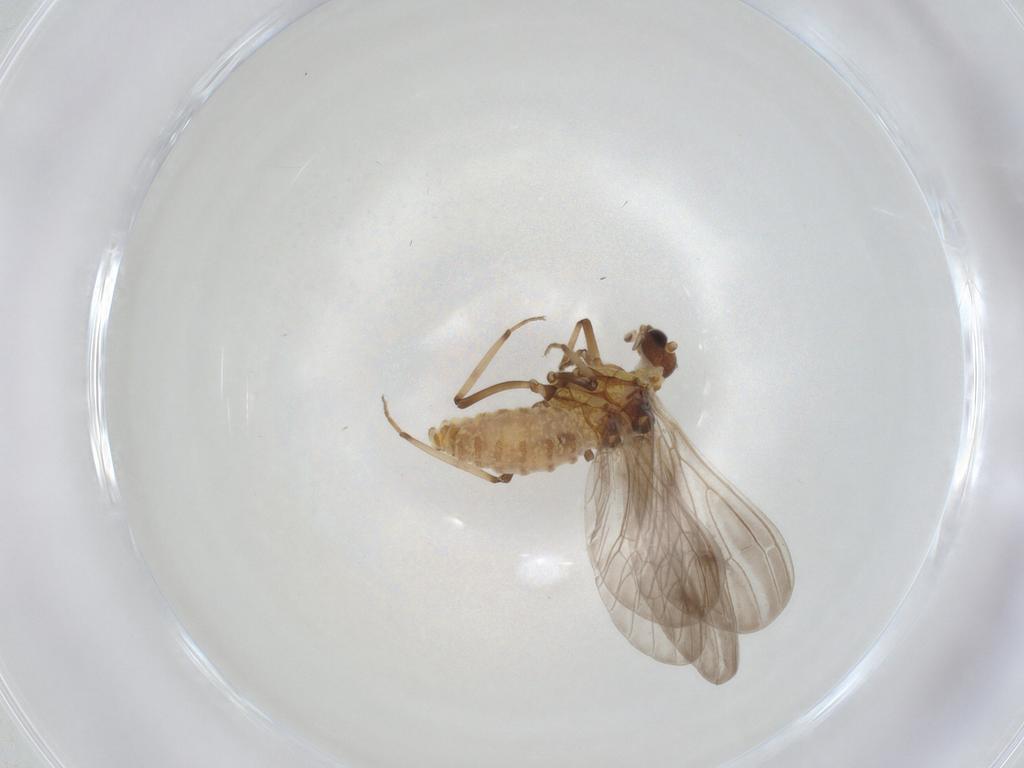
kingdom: Animalia
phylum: Arthropoda
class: Insecta
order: Neuroptera
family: Coniopterygidae
